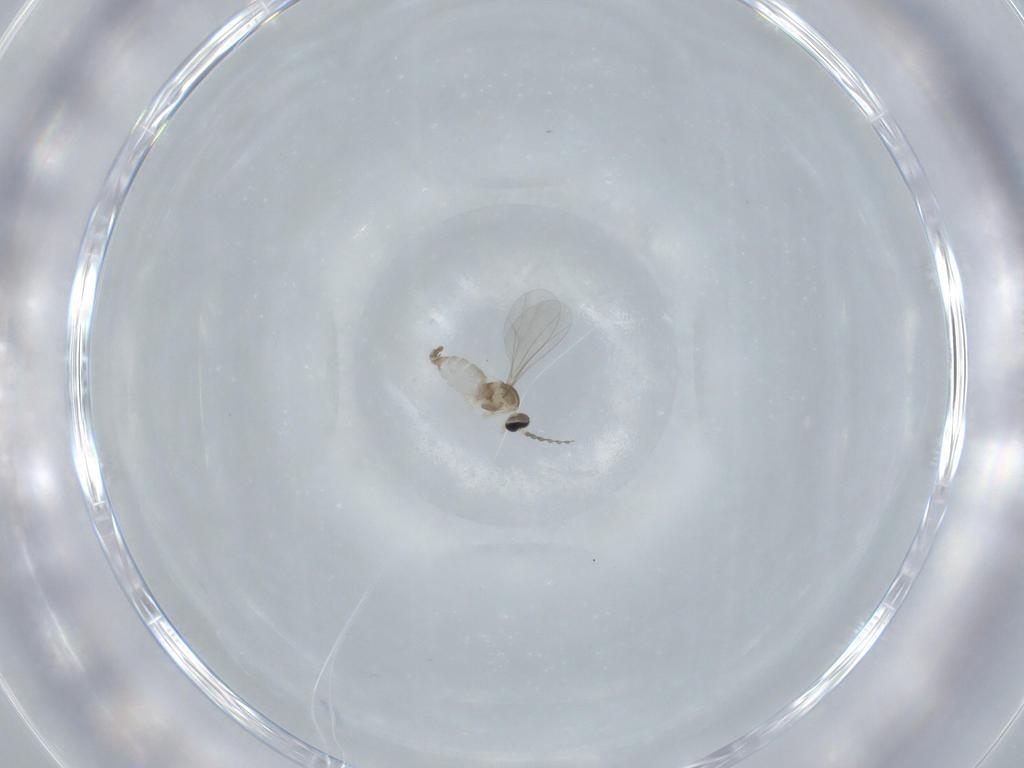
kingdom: Animalia
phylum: Arthropoda
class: Insecta
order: Diptera
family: Cecidomyiidae
